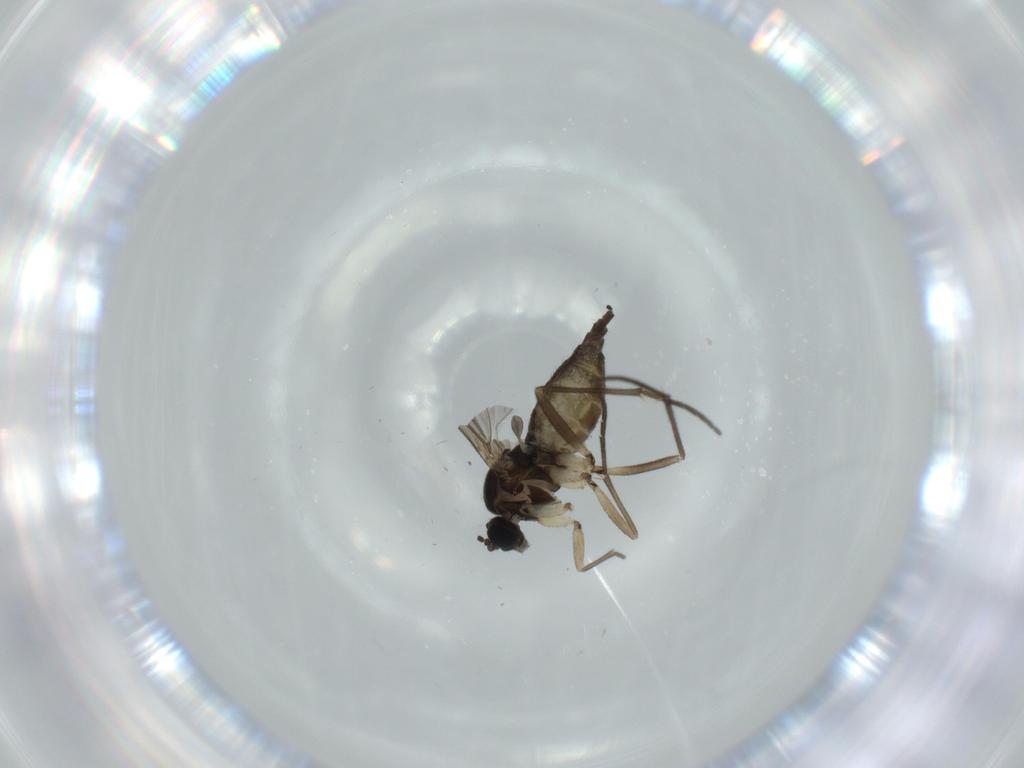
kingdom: Animalia
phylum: Arthropoda
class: Insecta
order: Diptera
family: Sciaridae
